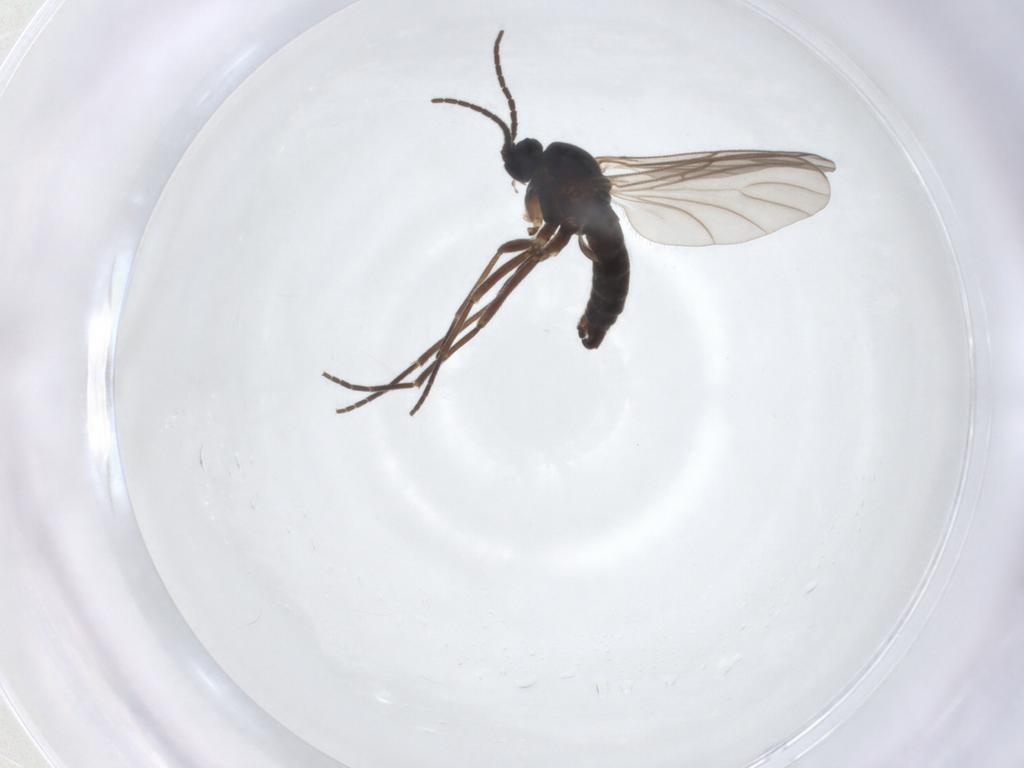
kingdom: Animalia
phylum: Arthropoda
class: Insecta
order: Diptera
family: Sciaridae
